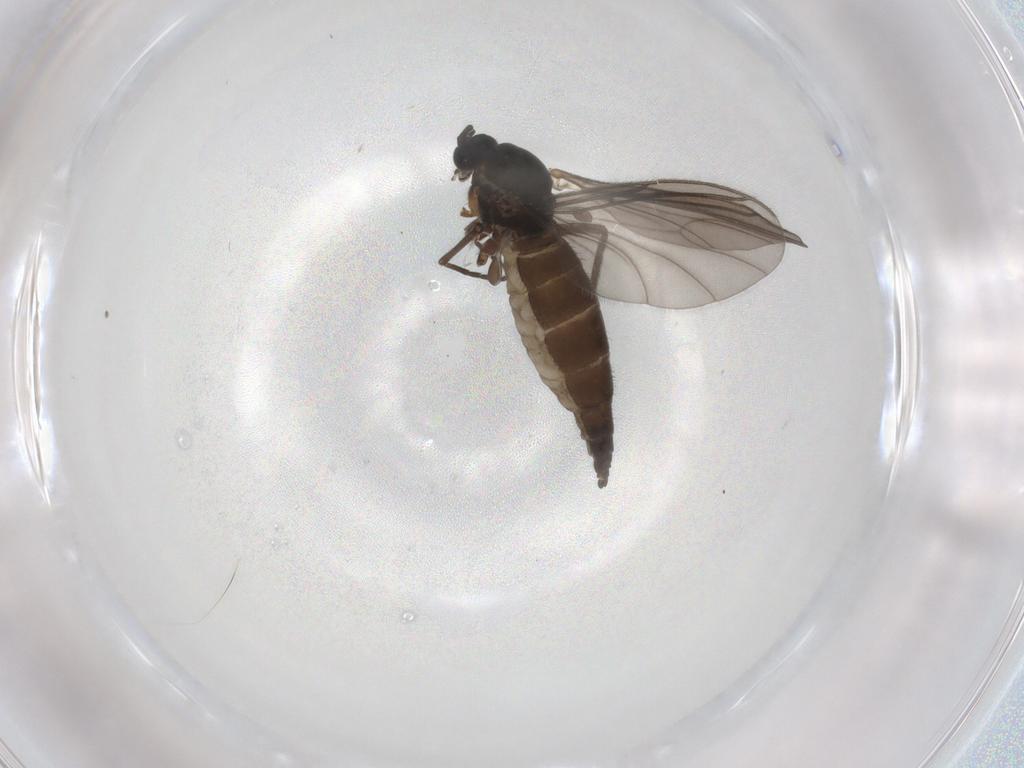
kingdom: Animalia
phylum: Arthropoda
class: Insecta
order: Diptera
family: Sciaridae
